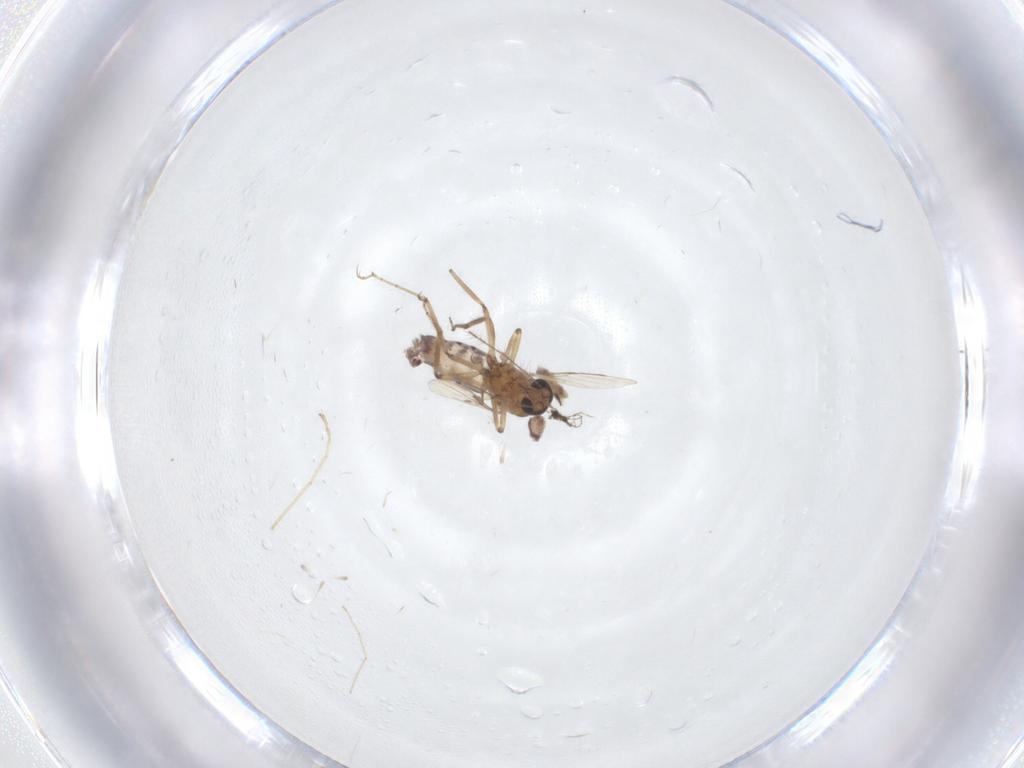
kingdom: Animalia
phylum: Arthropoda
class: Insecta
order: Diptera
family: Ceratopogonidae
